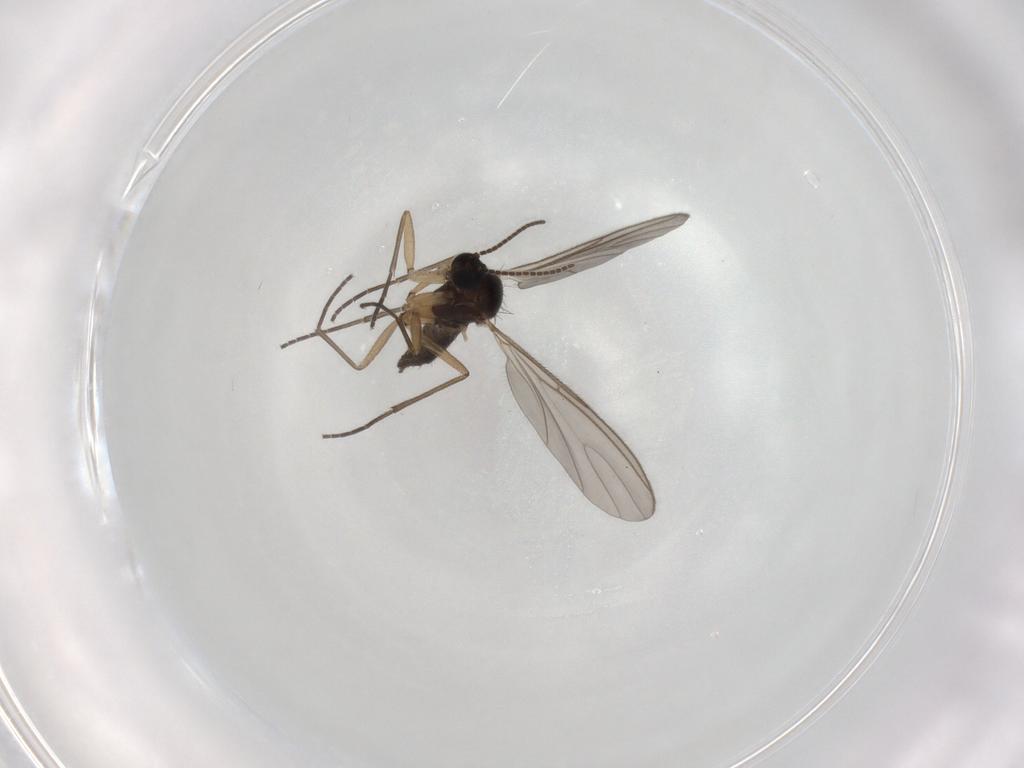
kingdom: Animalia
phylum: Arthropoda
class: Insecta
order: Diptera
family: Sciaridae
